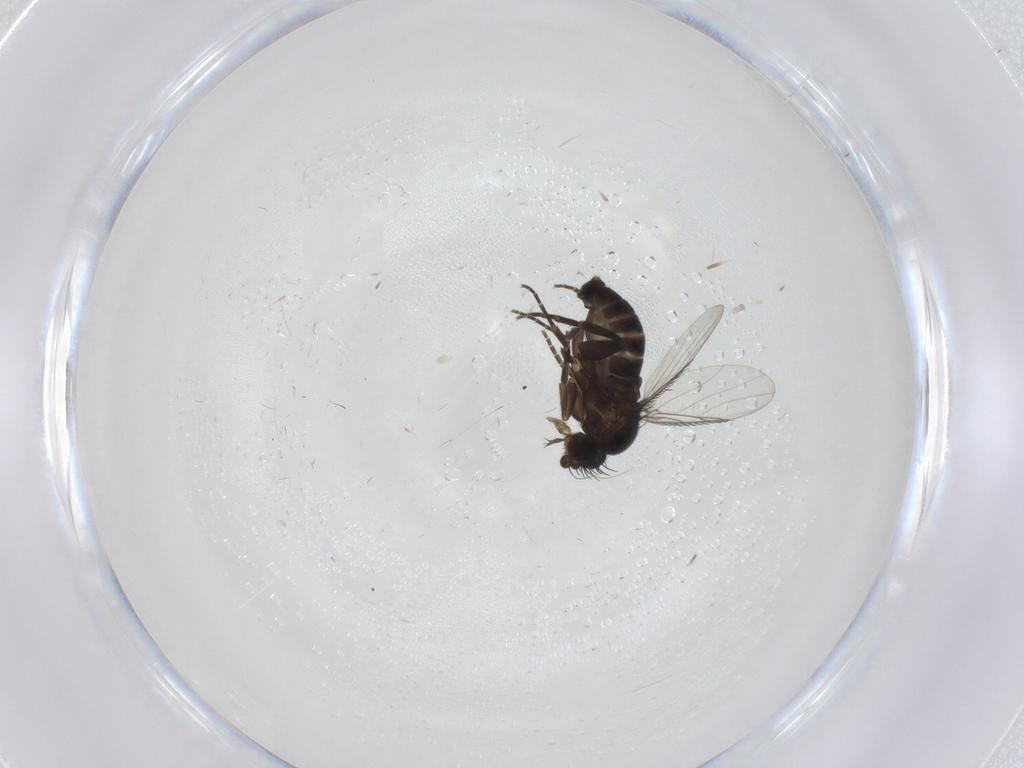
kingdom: Animalia
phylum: Arthropoda
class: Insecta
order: Diptera
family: Phoridae
